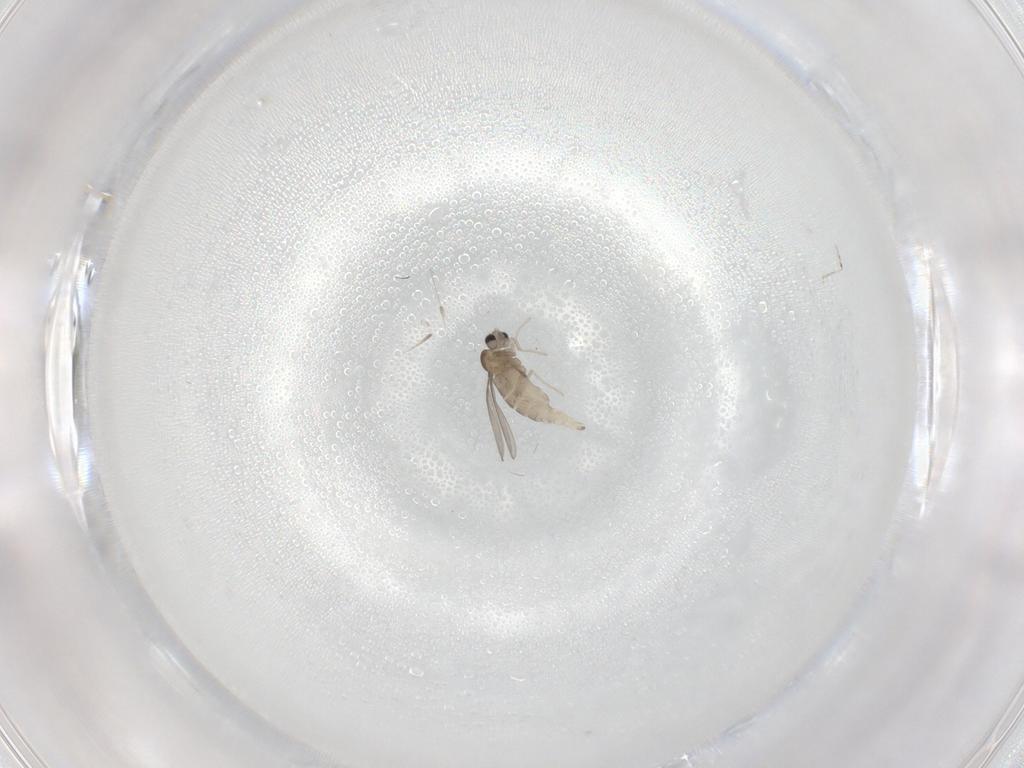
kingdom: Animalia
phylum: Arthropoda
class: Insecta
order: Diptera
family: Cecidomyiidae
